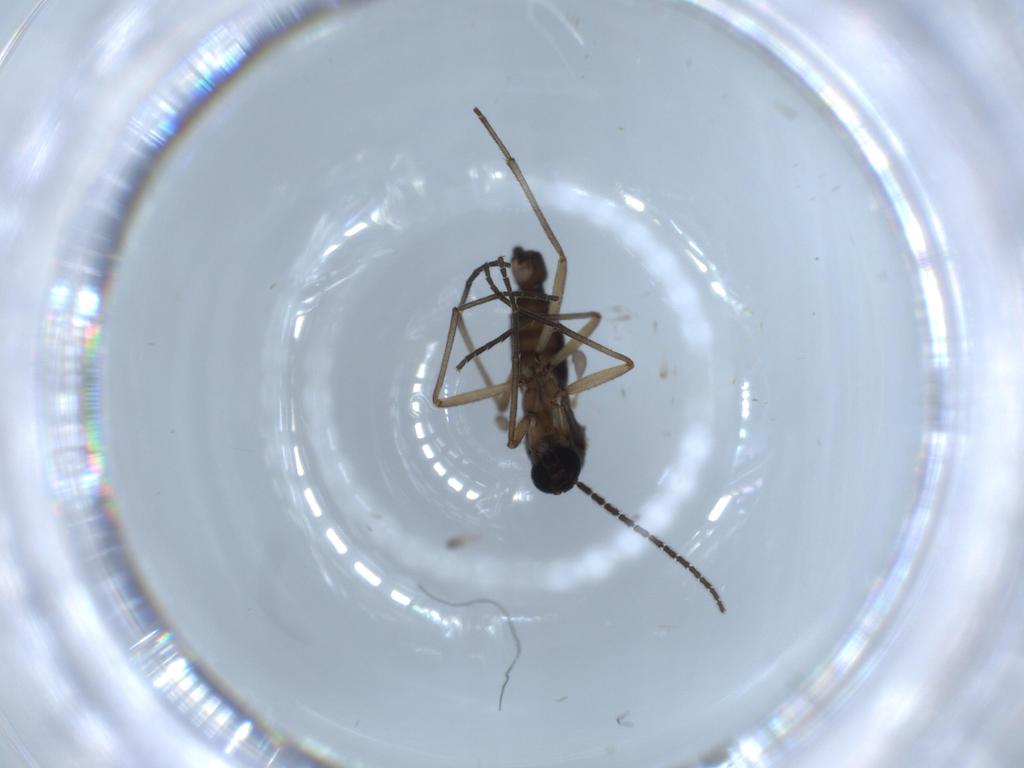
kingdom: Animalia
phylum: Arthropoda
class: Insecta
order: Diptera
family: Sciaridae
